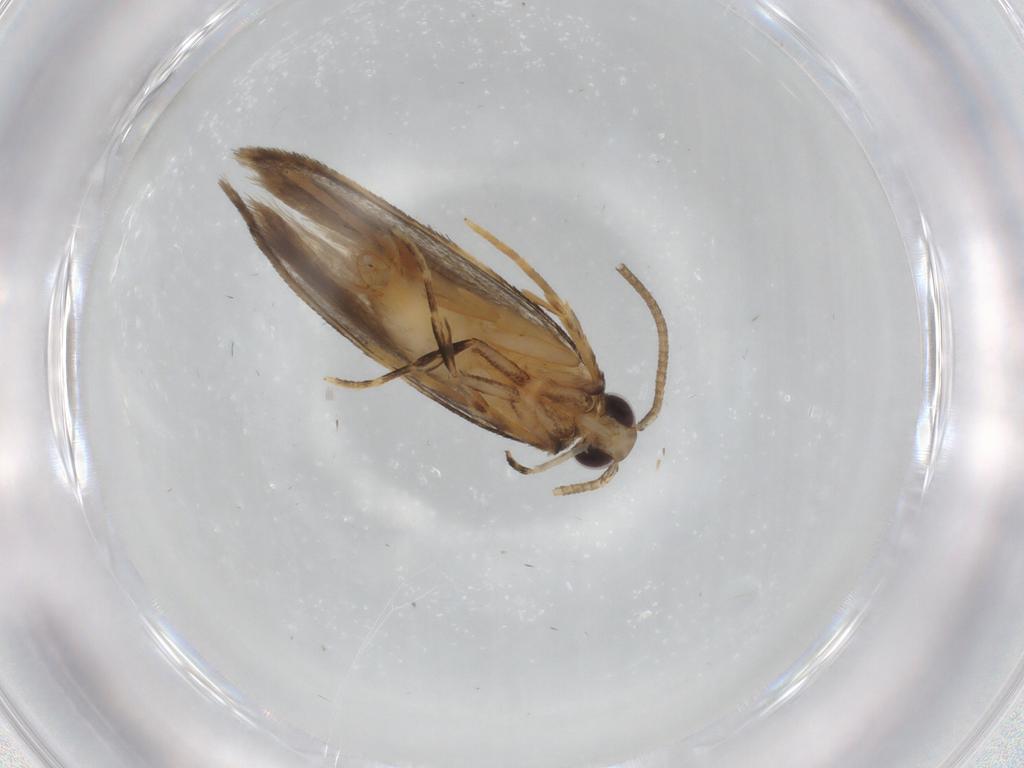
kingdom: Animalia
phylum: Arthropoda
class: Insecta
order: Lepidoptera
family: Autostichidae
